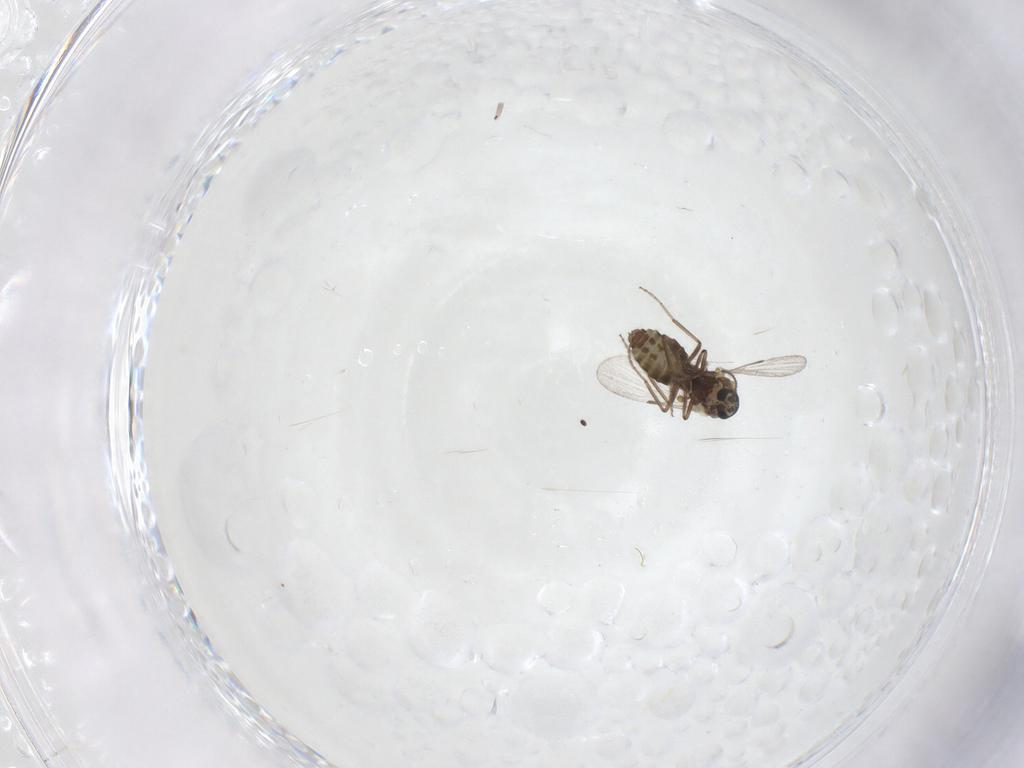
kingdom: Animalia
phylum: Arthropoda
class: Insecta
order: Diptera
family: Ceratopogonidae
